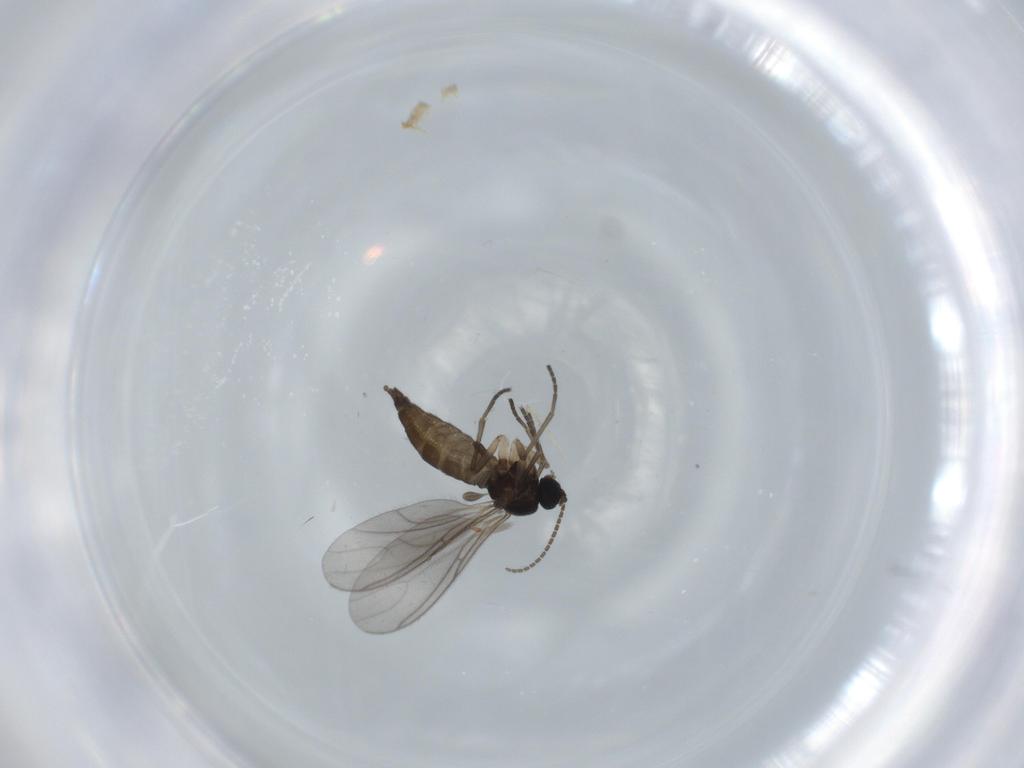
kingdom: Animalia
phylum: Arthropoda
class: Insecta
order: Diptera
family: Sciaridae
